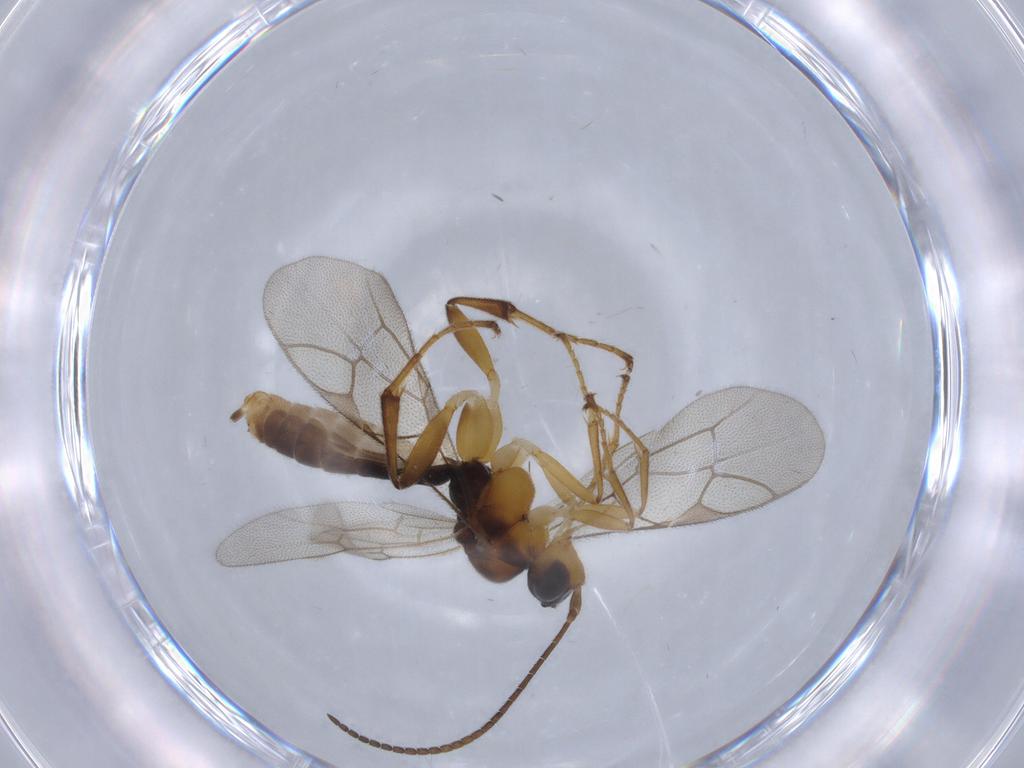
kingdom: Animalia
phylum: Arthropoda
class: Insecta
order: Hymenoptera
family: Ichneumonidae
